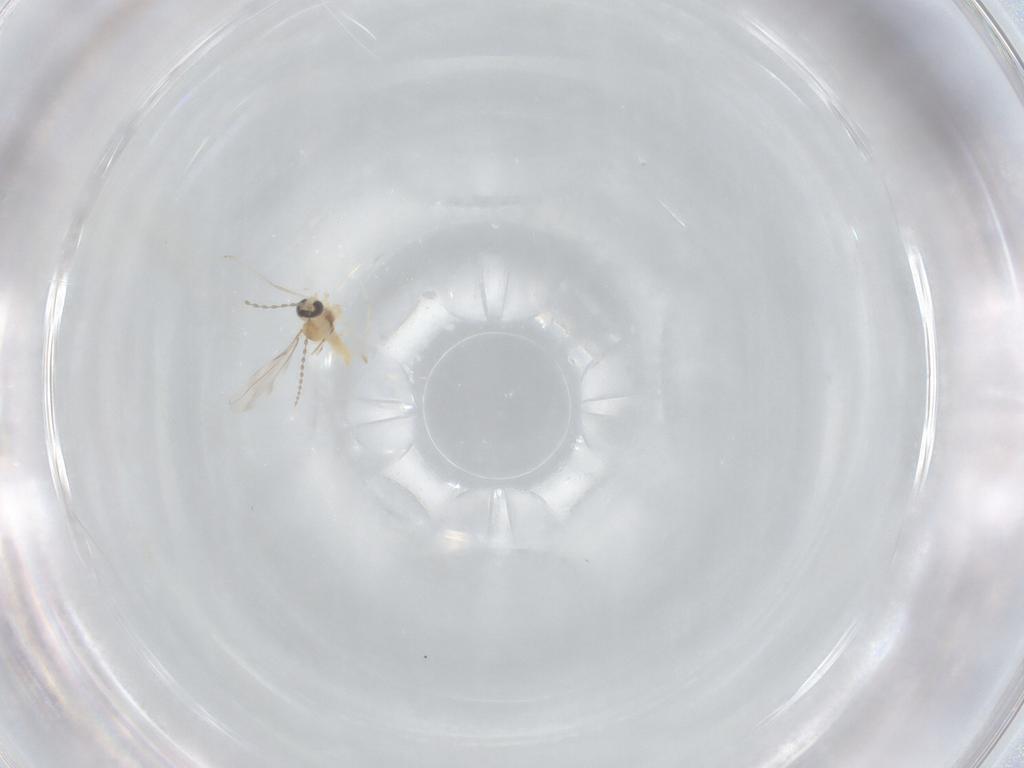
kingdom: Animalia
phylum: Arthropoda
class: Insecta
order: Diptera
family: Cecidomyiidae
